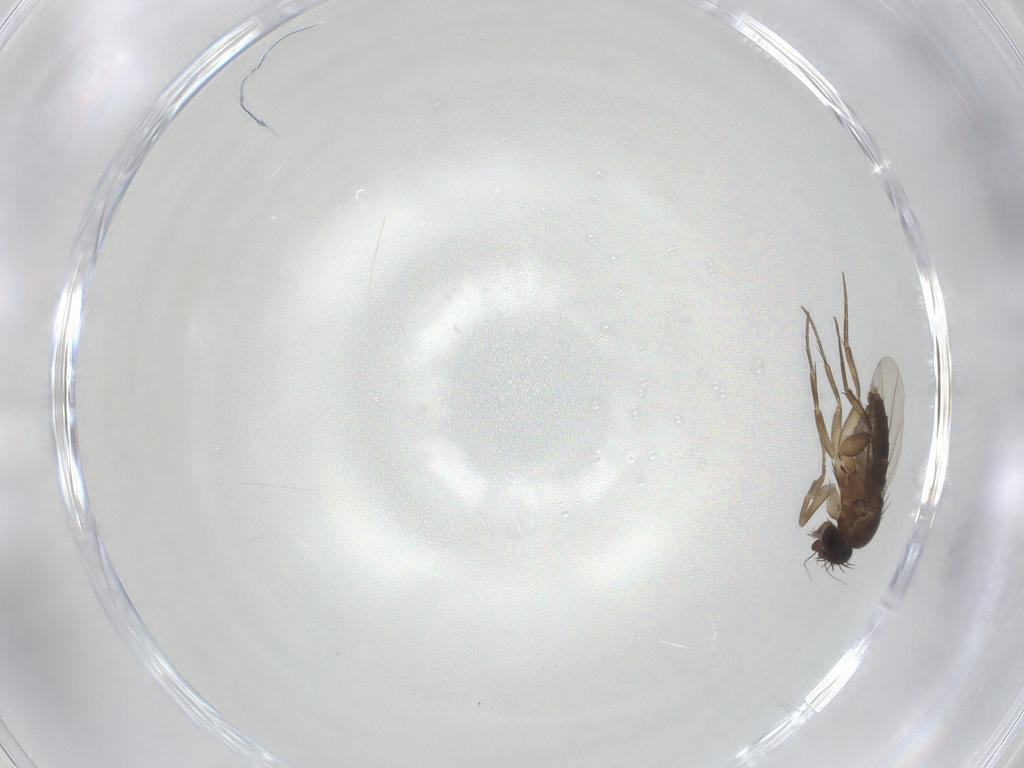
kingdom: Animalia
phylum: Arthropoda
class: Insecta
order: Diptera
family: Phoridae
